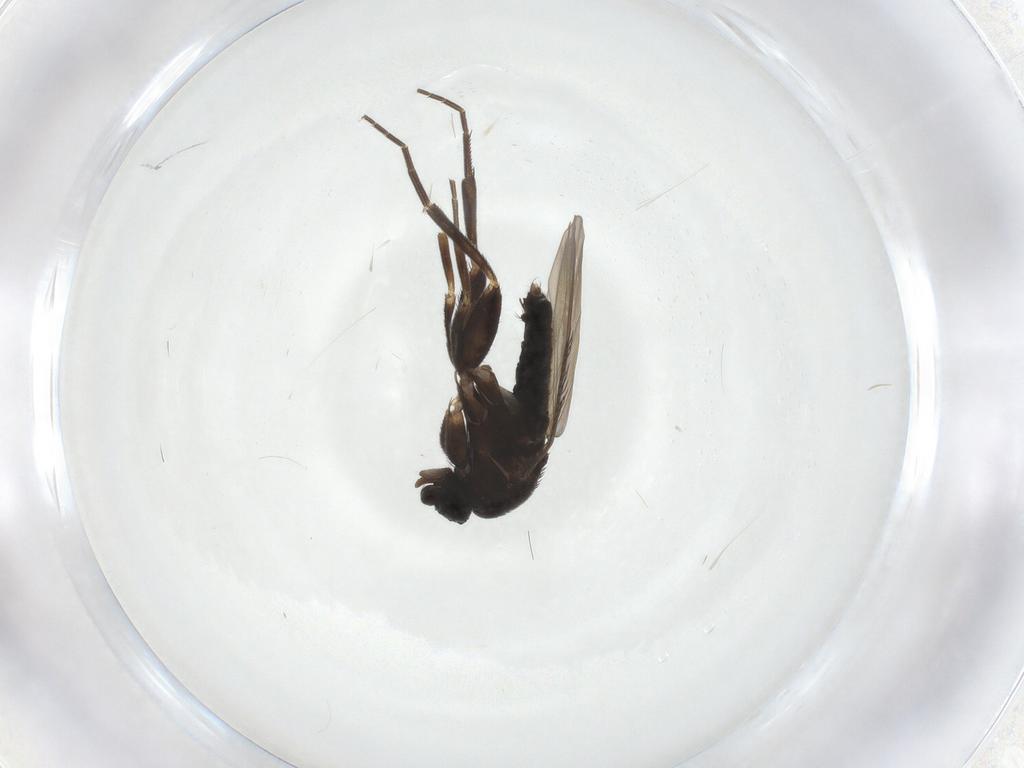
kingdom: Animalia
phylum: Arthropoda
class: Insecta
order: Diptera
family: Phoridae
